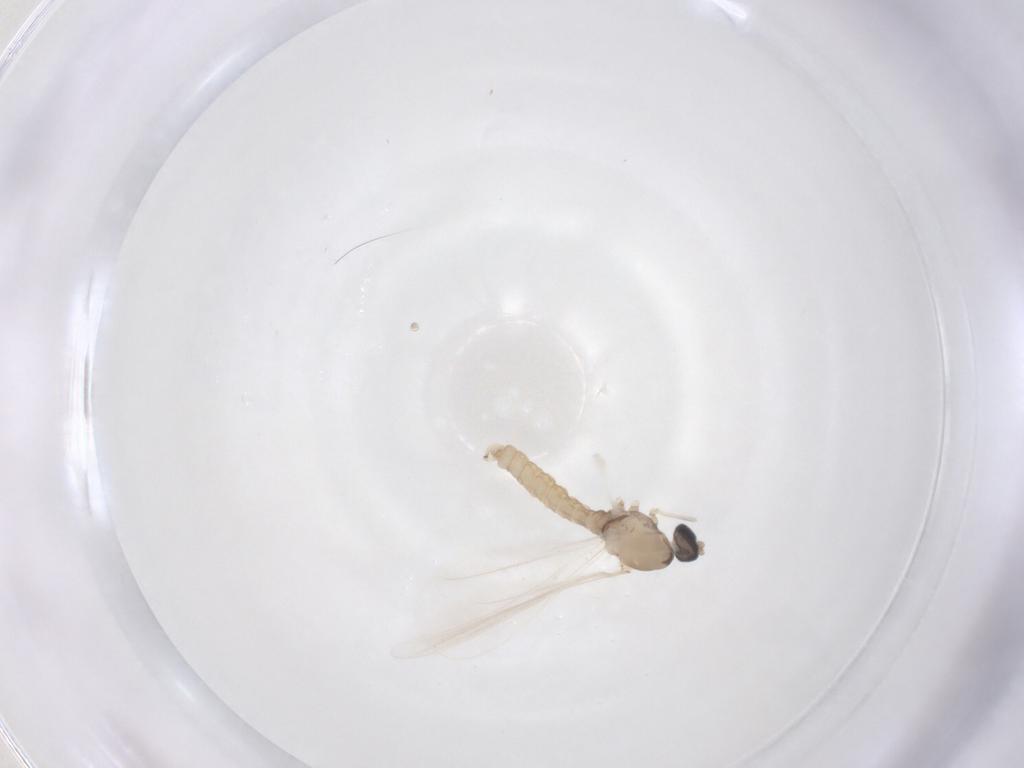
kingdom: Animalia
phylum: Arthropoda
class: Insecta
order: Diptera
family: Cecidomyiidae
